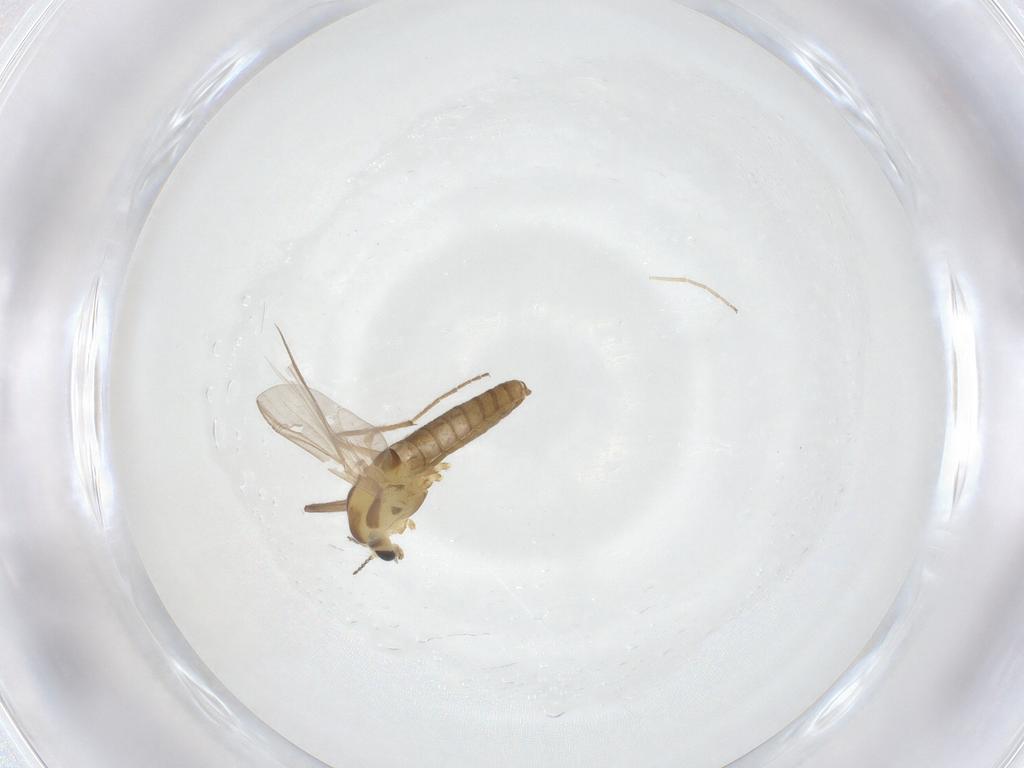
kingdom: Animalia
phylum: Arthropoda
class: Insecta
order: Diptera
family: Chironomidae
